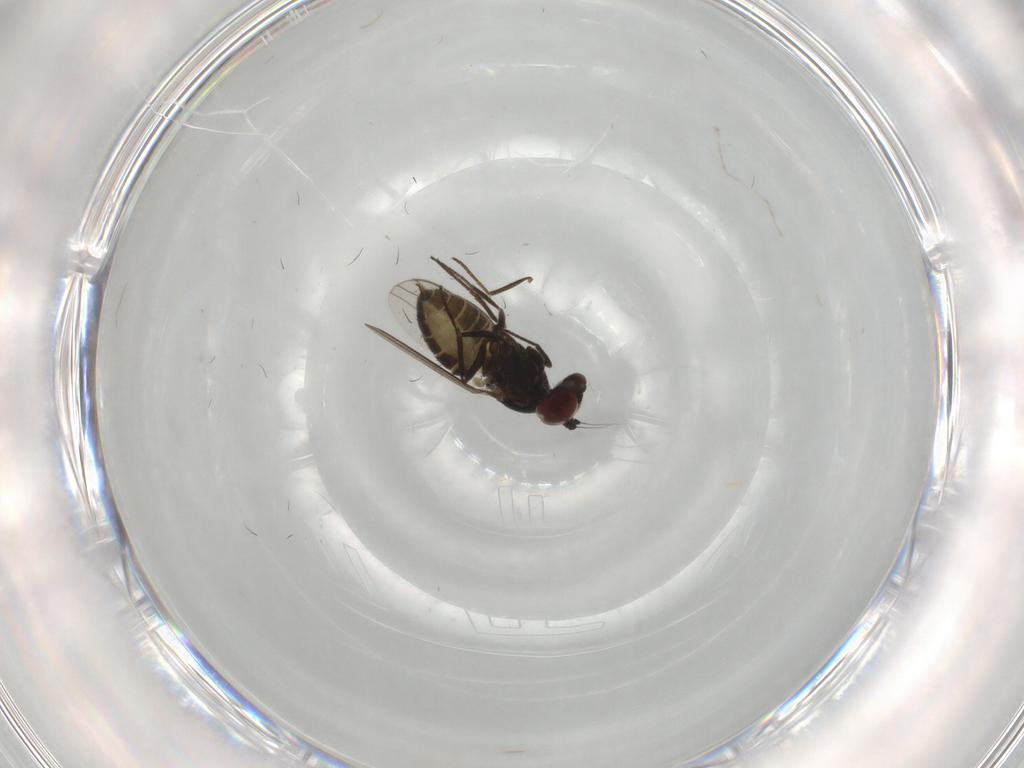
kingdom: Animalia
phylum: Arthropoda
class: Insecta
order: Diptera
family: Dolichopodidae
